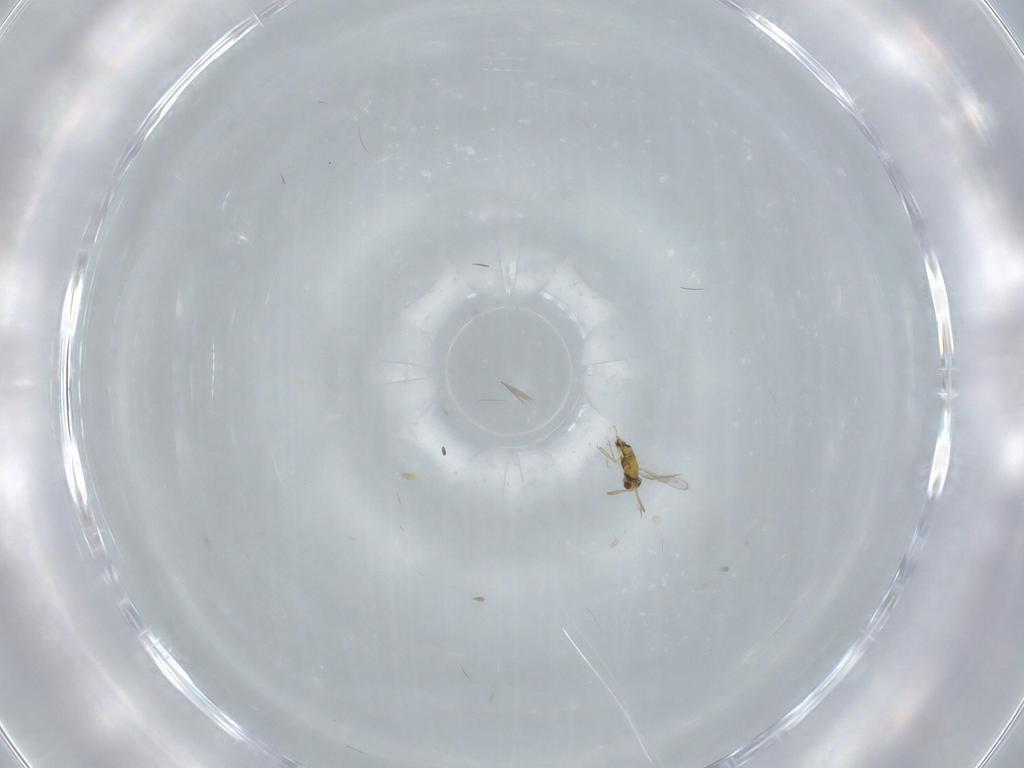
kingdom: Animalia
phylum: Arthropoda
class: Insecta
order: Hymenoptera
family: Aphelinidae
